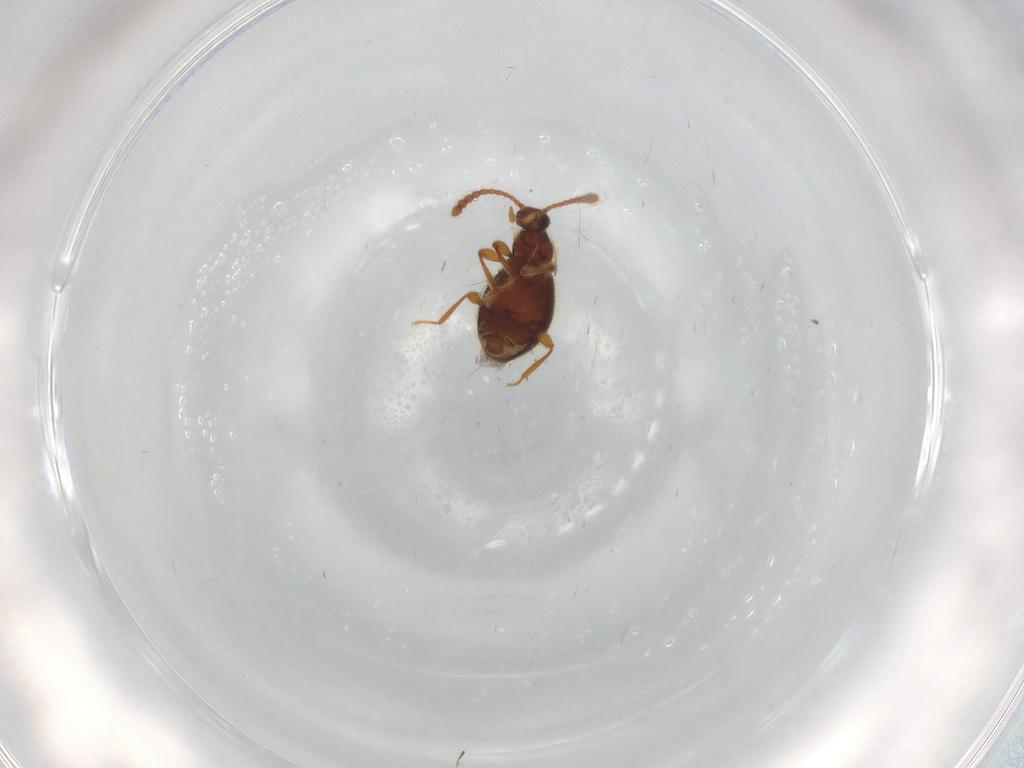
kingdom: Animalia
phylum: Arthropoda
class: Insecta
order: Coleoptera
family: Staphylinidae
